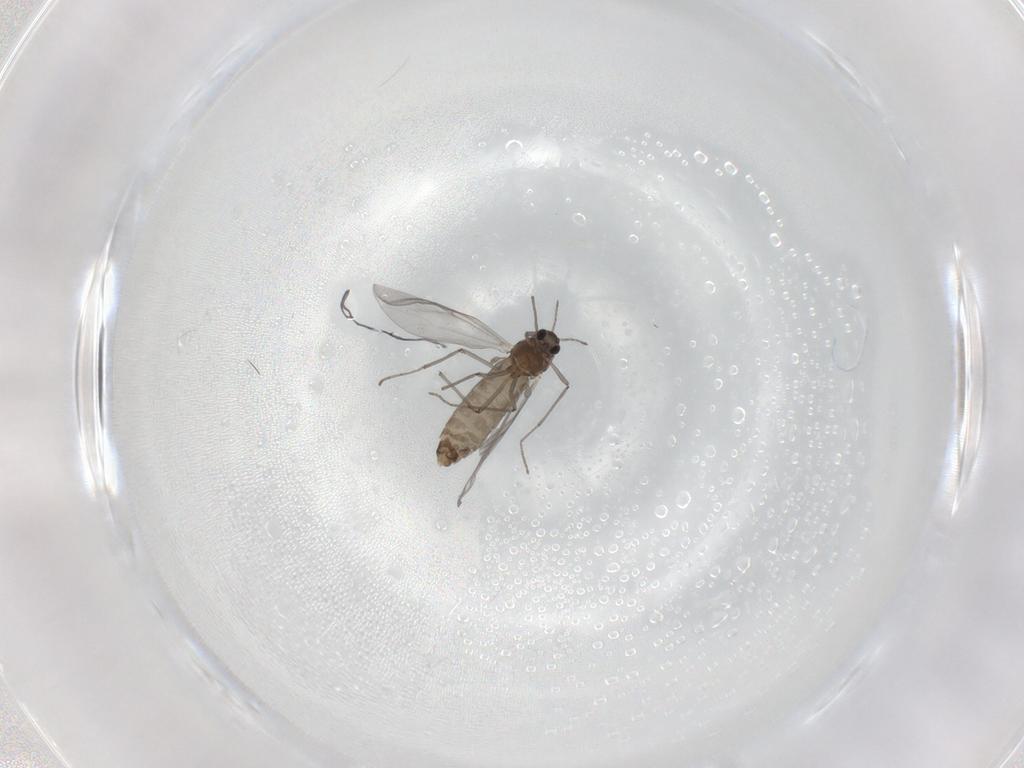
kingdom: Animalia
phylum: Arthropoda
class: Insecta
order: Diptera
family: Chironomidae
